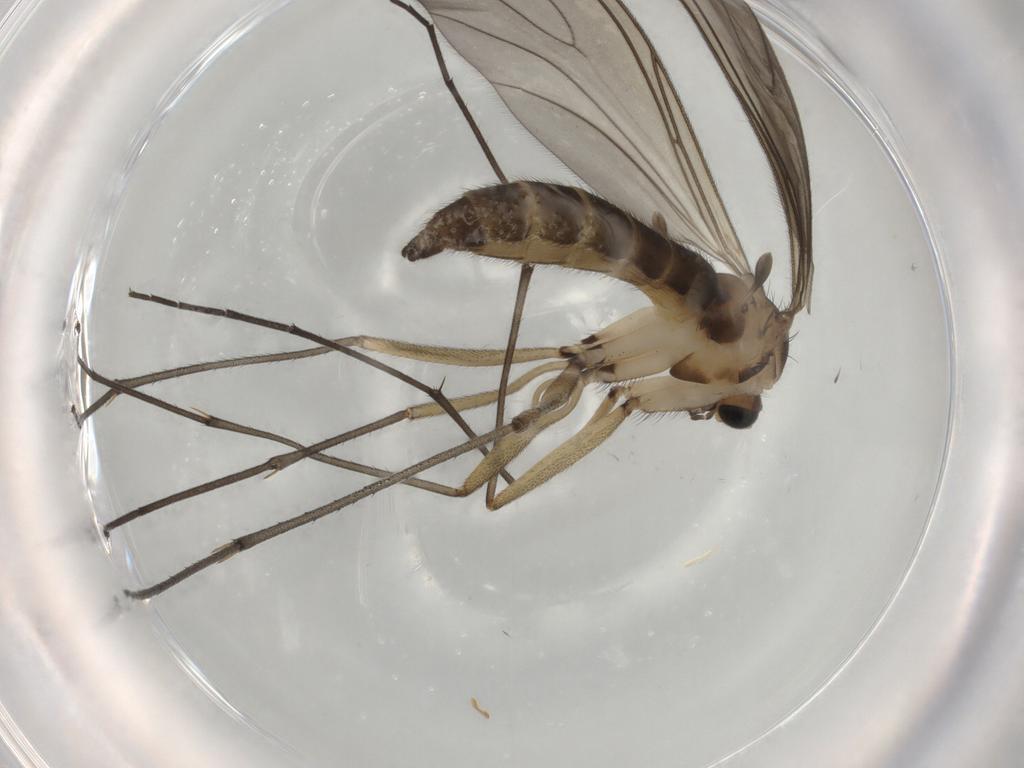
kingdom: Animalia
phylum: Arthropoda
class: Insecta
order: Diptera
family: Sciaridae
